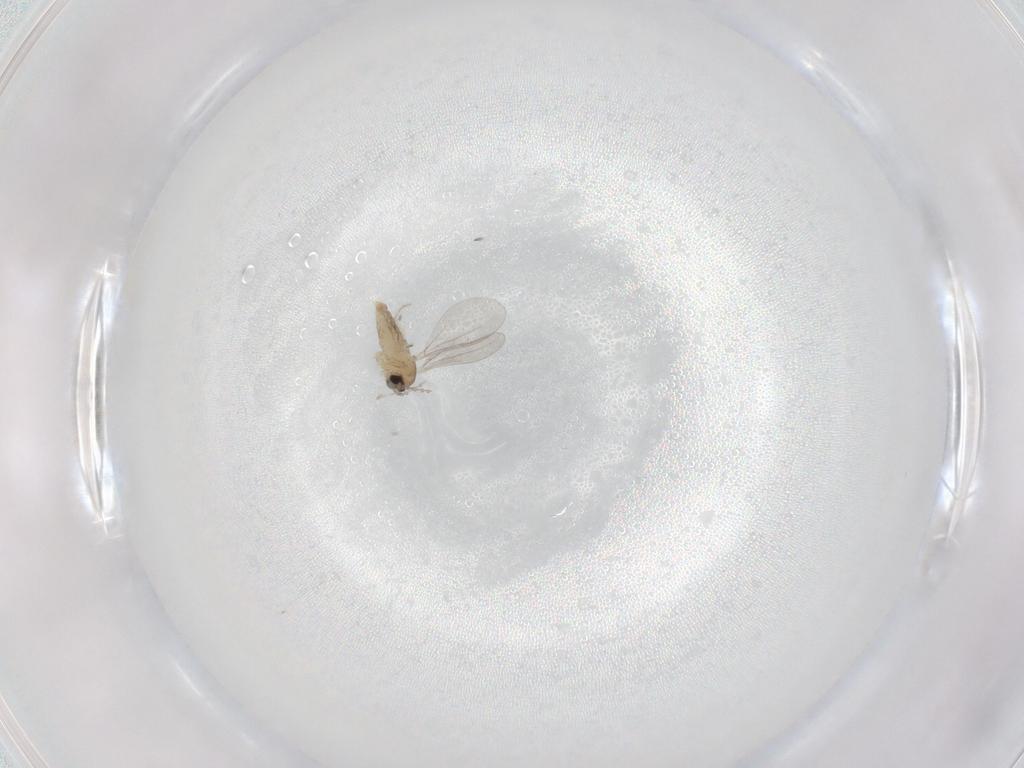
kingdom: Animalia
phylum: Arthropoda
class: Insecta
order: Diptera
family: Cecidomyiidae
